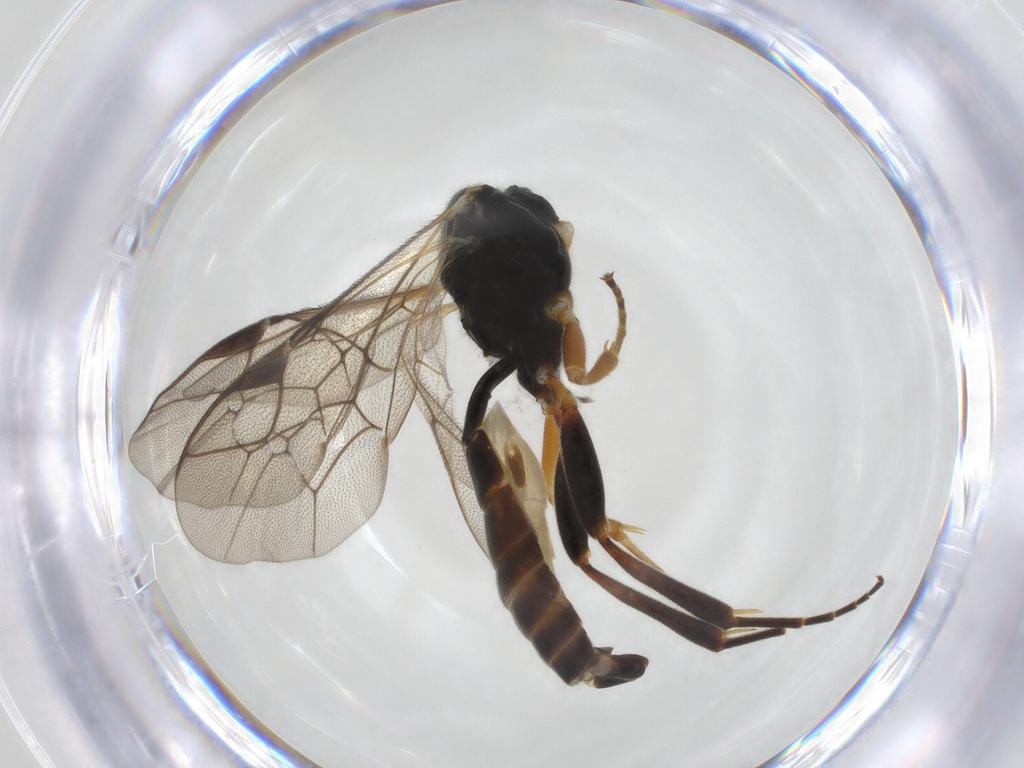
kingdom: Animalia
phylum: Arthropoda
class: Insecta
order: Hymenoptera
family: Ichneumonidae
